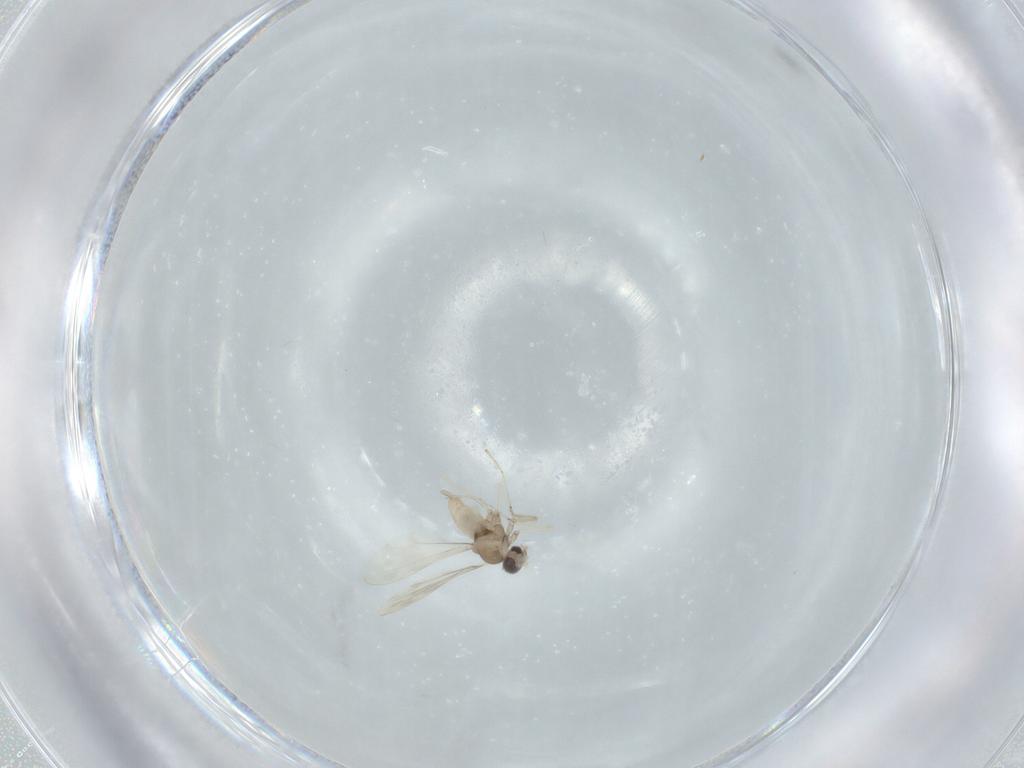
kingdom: Animalia
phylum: Arthropoda
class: Insecta
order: Diptera
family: Cecidomyiidae
